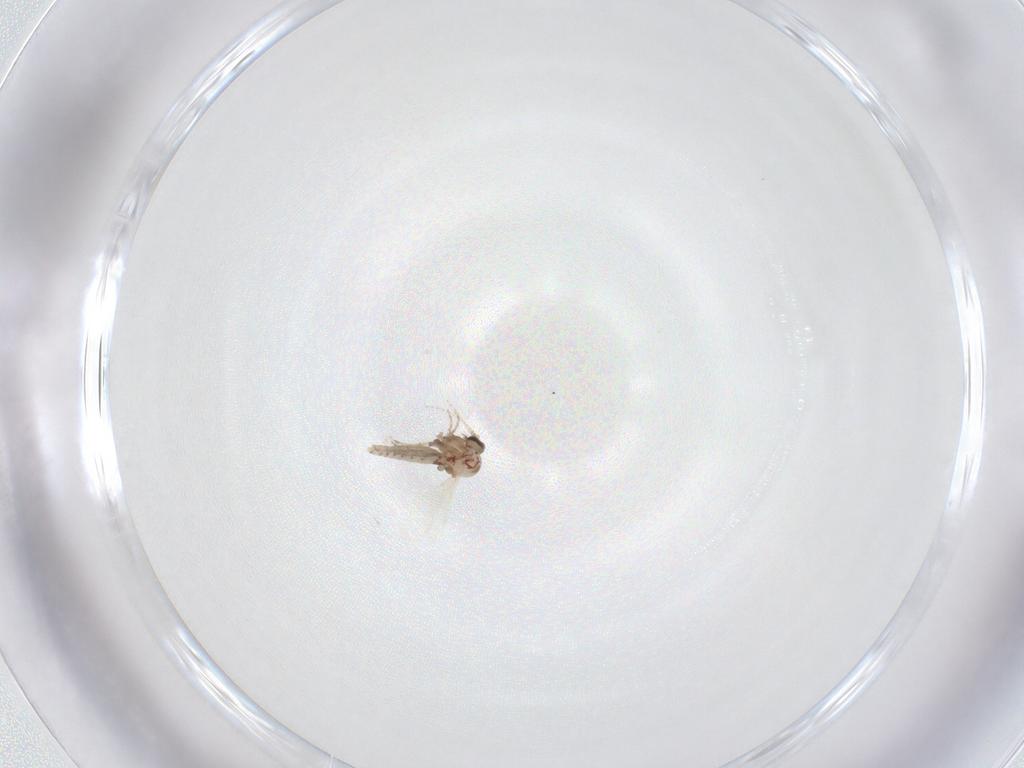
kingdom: Animalia
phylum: Arthropoda
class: Insecta
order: Diptera
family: Ceratopogonidae
